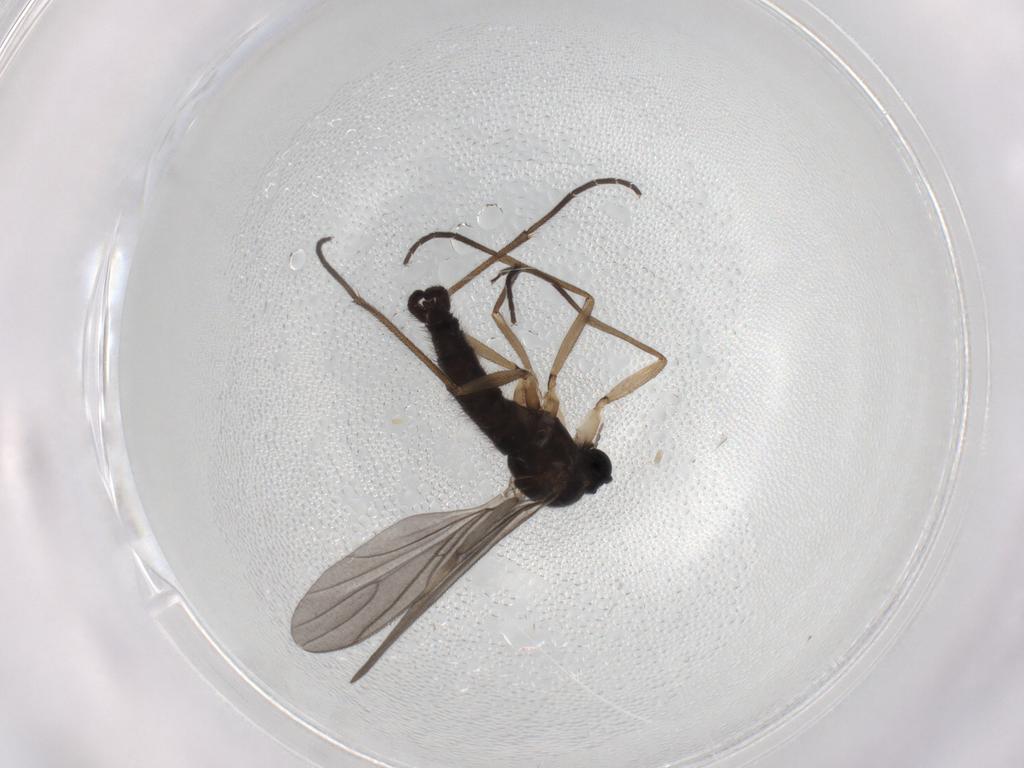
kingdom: Animalia
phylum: Arthropoda
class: Insecta
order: Diptera
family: Sciaridae
